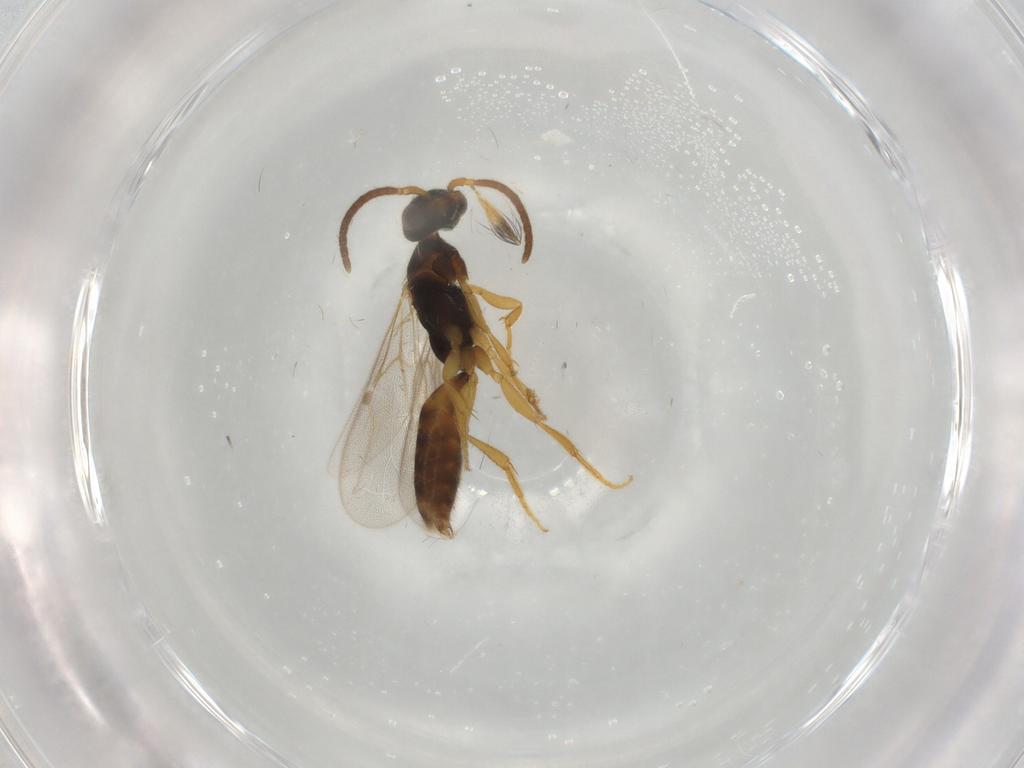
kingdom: Animalia
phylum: Arthropoda
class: Insecta
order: Hymenoptera
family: Bethylidae
